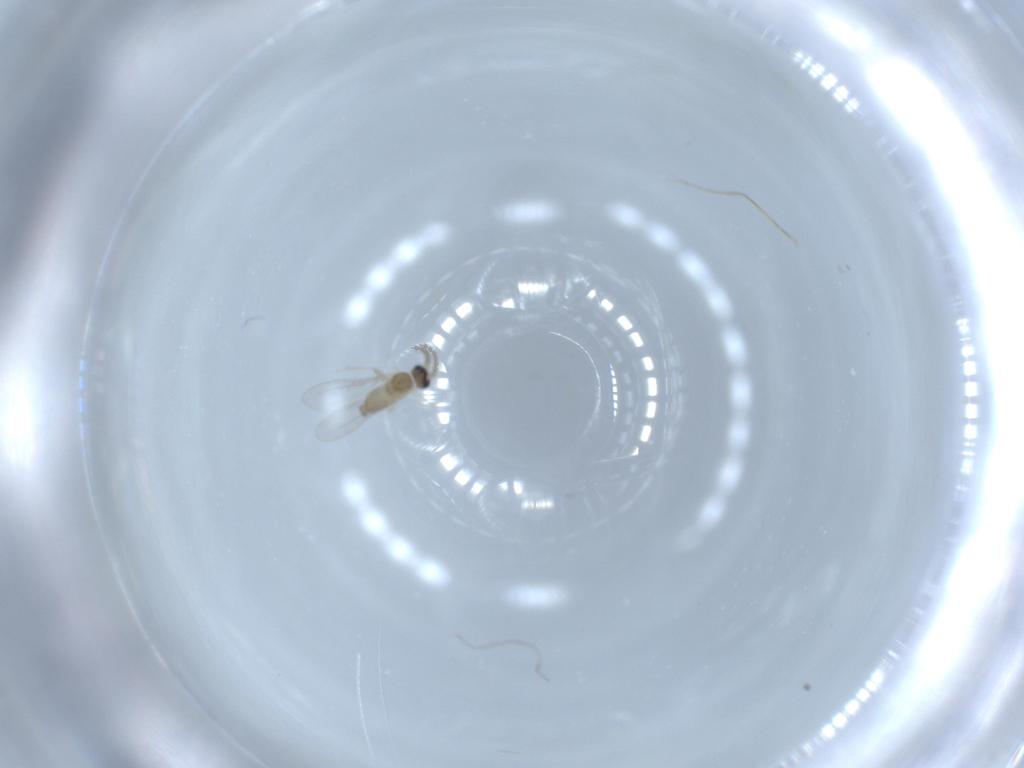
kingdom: Animalia
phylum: Arthropoda
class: Insecta
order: Diptera
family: Cecidomyiidae
